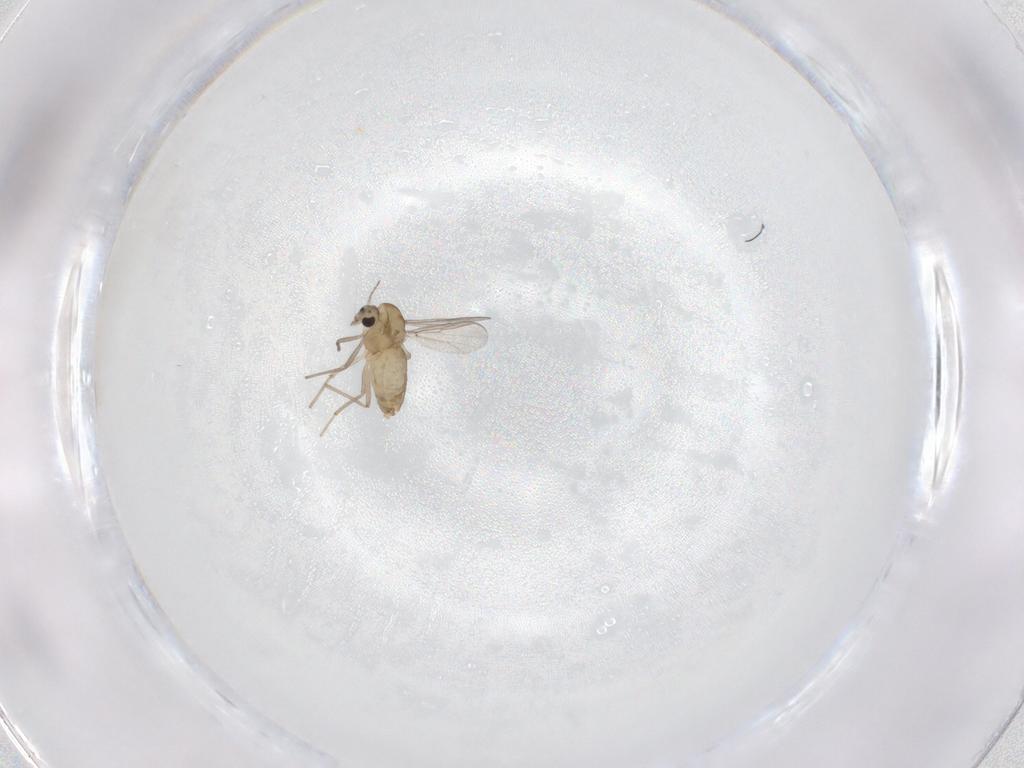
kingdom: Animalia
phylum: Arthropoda
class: Insecta
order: Diptera
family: Chironomidae
